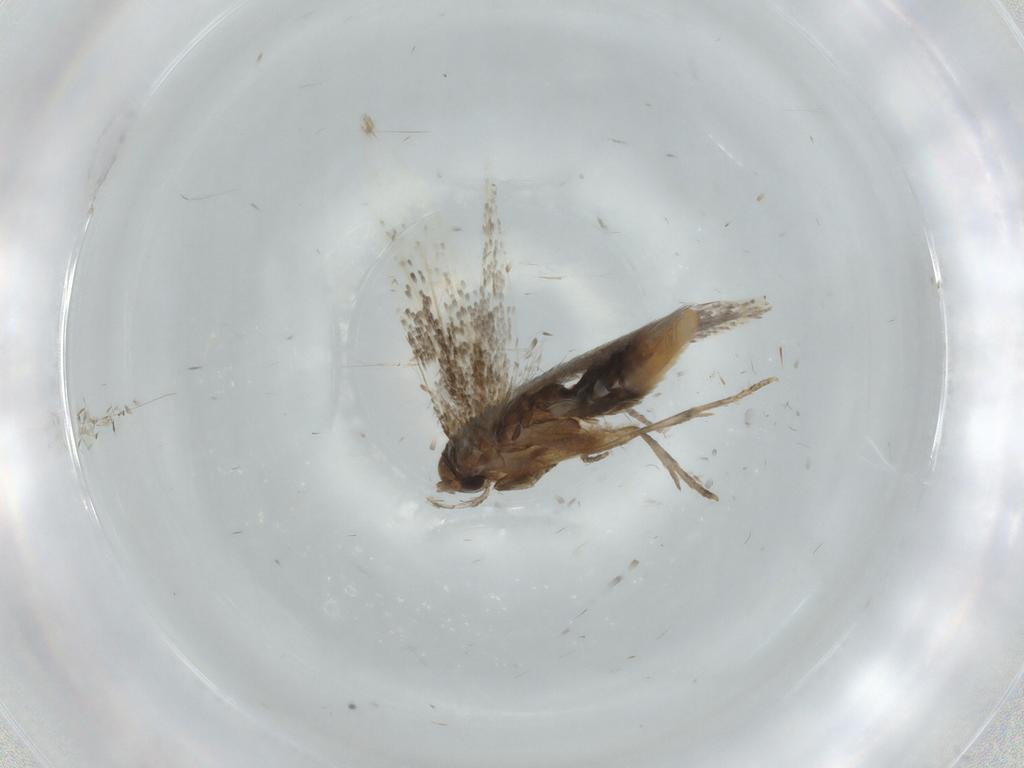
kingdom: Animalia
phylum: Arthropoda
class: Insecta
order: Lepidoptera
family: Elachistidae
